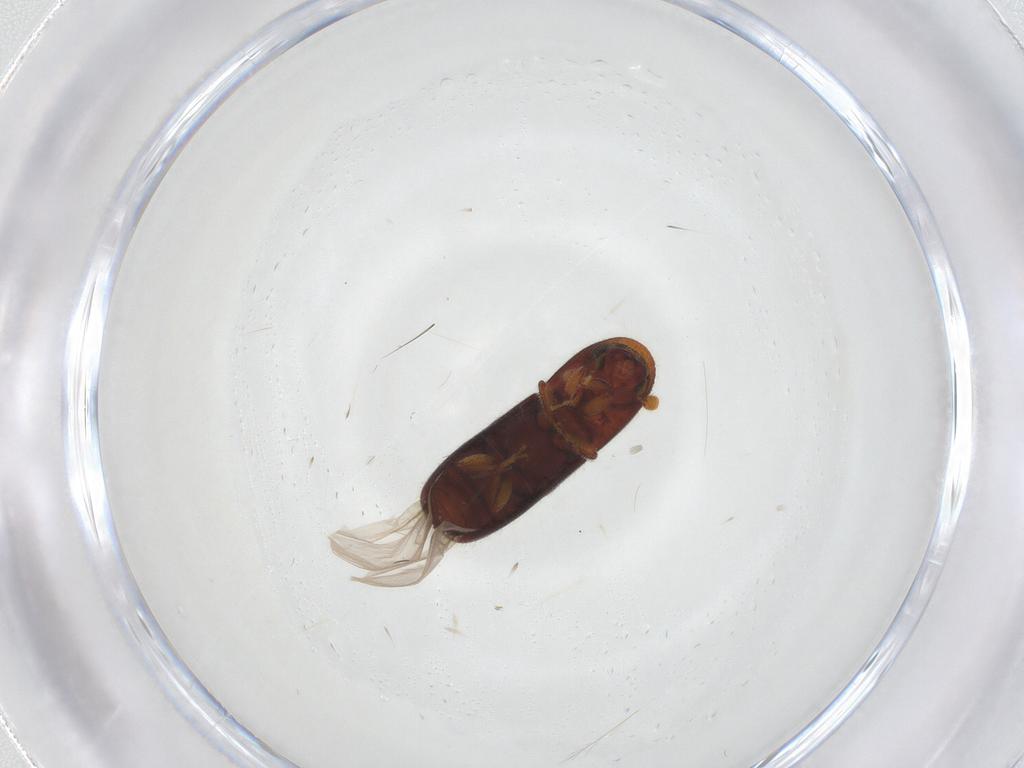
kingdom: Animalia
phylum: Arthropoda
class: Insecta
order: Coleoptera
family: Curculionidae
